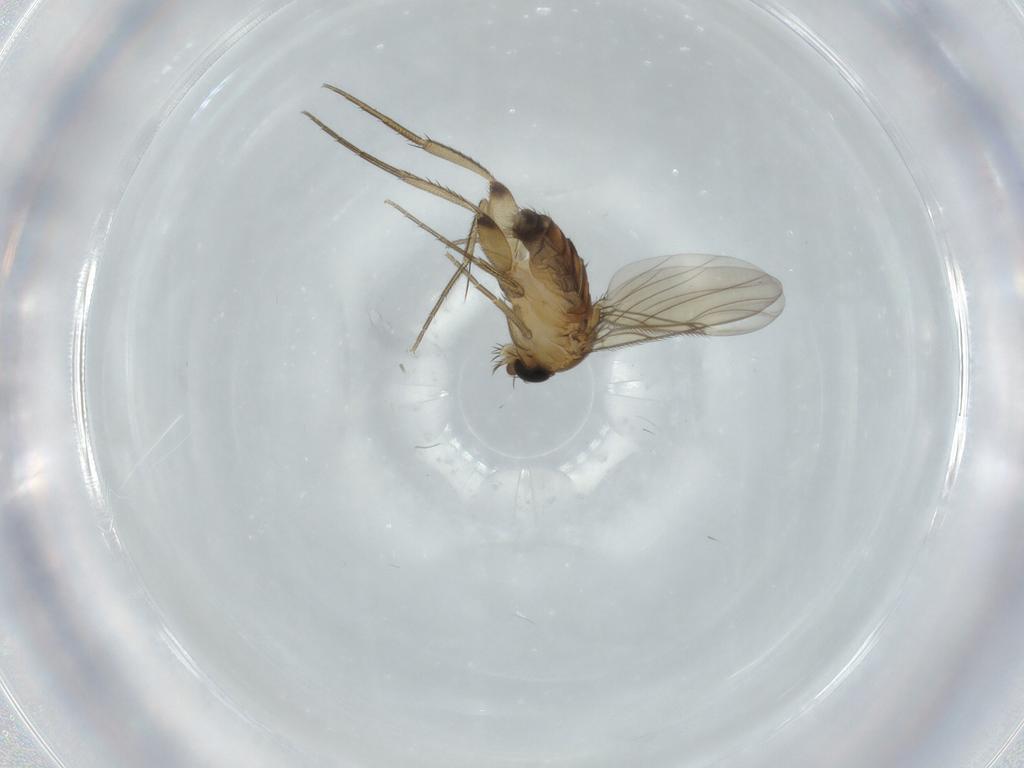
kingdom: Animalia
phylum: Arthropoda
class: Insecta
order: Diptera
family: Phoridae
